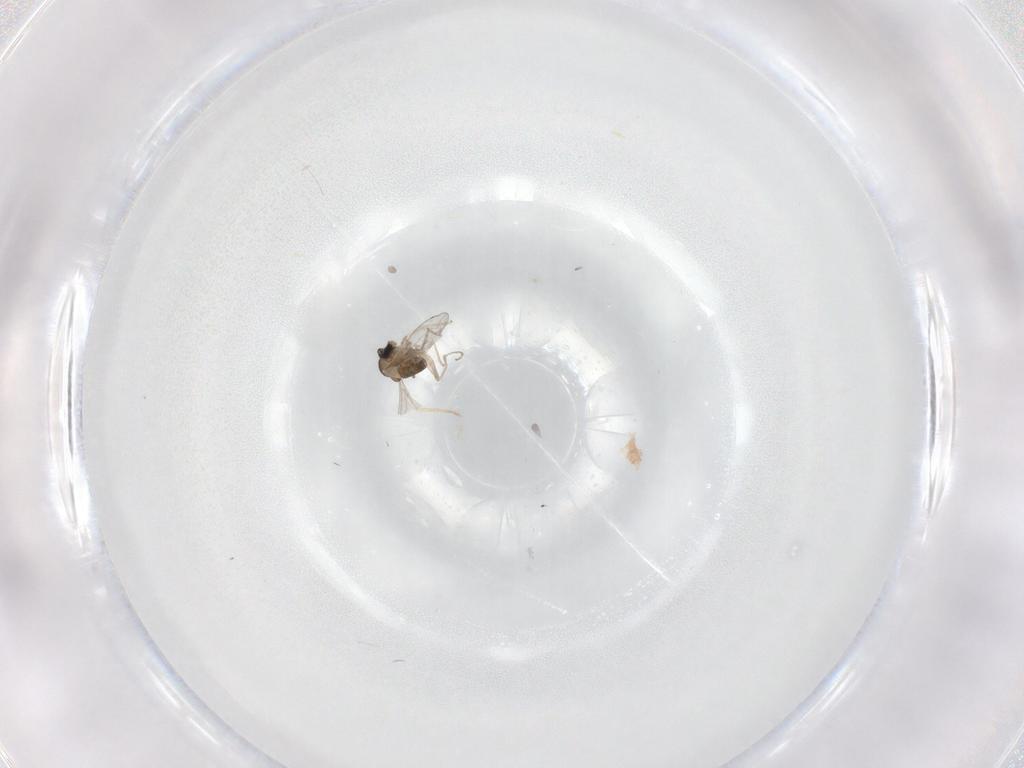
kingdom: Animalia
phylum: Arthropoda
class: Insecta
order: Diptera
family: Cecidomyiidae
